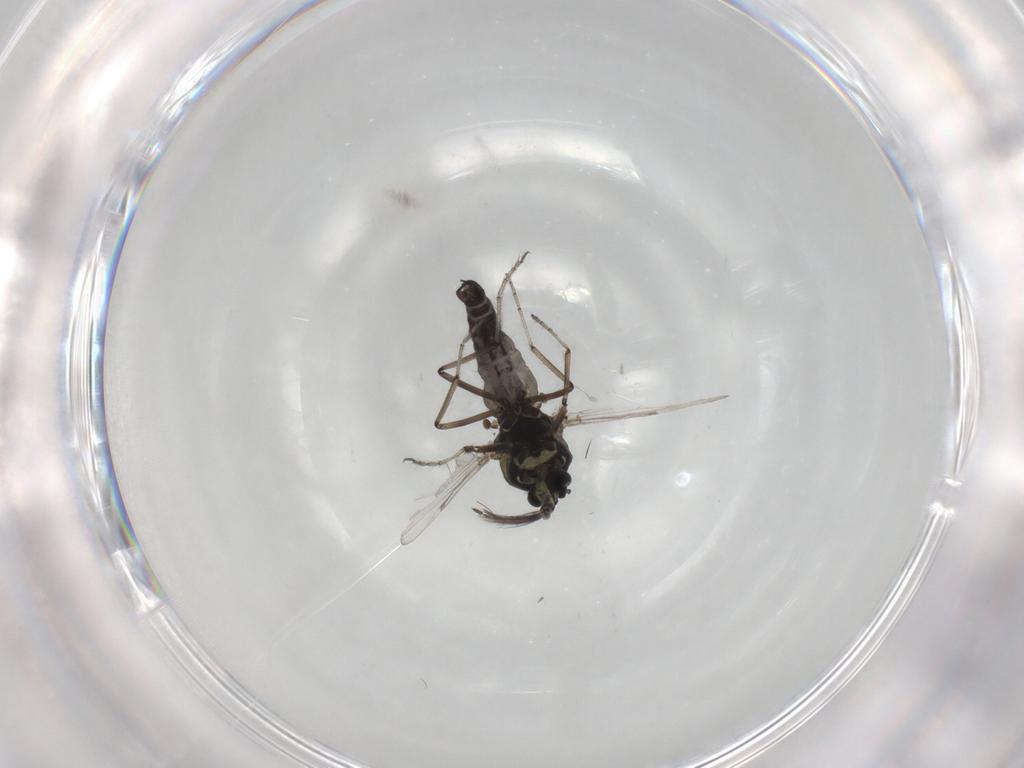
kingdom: Animalia
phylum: Arthropoda
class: Insecta
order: Diptera
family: Ceratopogonidae
